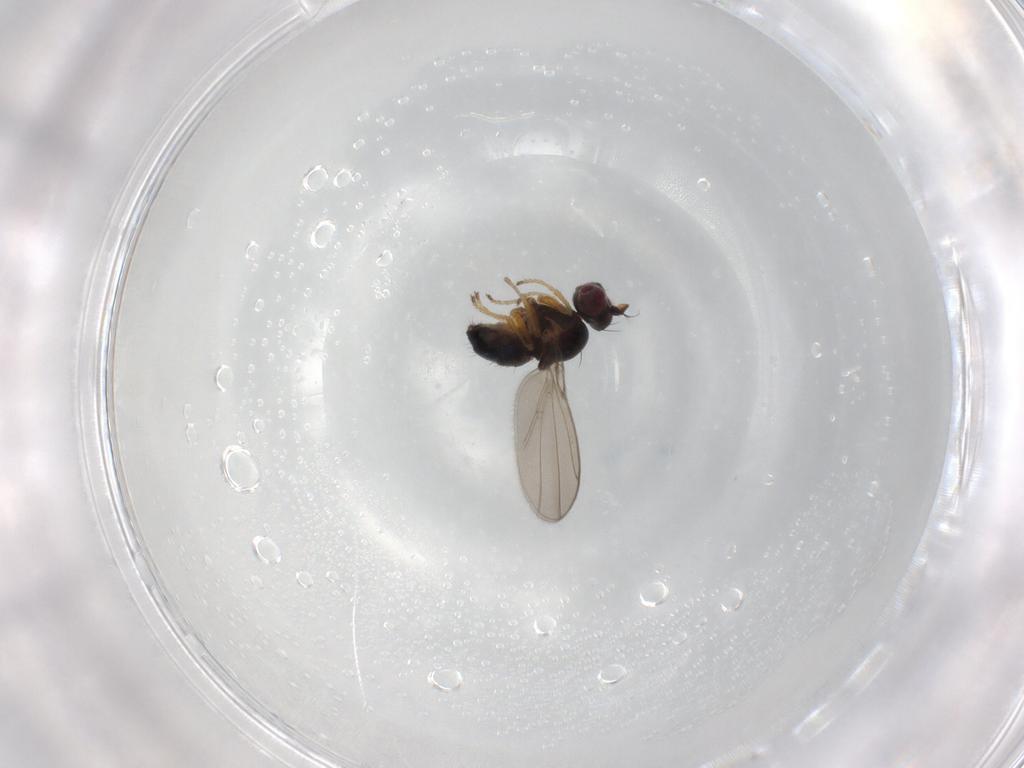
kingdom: Animalia
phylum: Arthropoda
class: Insecta
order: Diptera
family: Ephydridae
